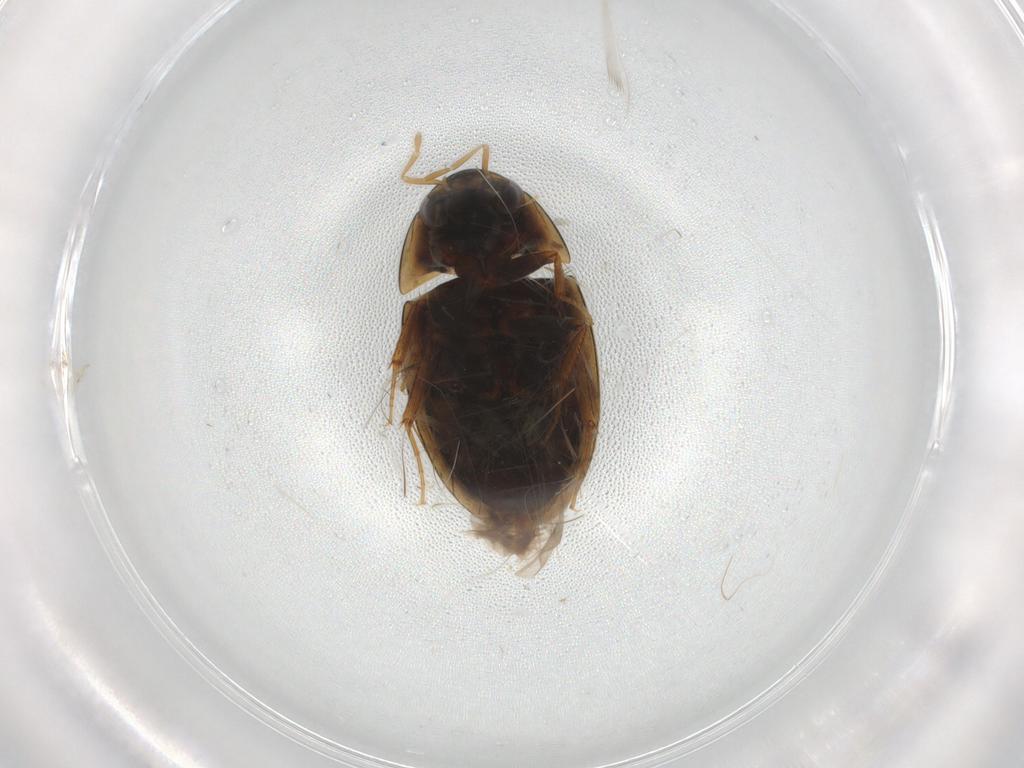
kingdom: Animalia
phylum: Arthropoda
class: Insecta
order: Coleoptera
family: Hydrophilidae
